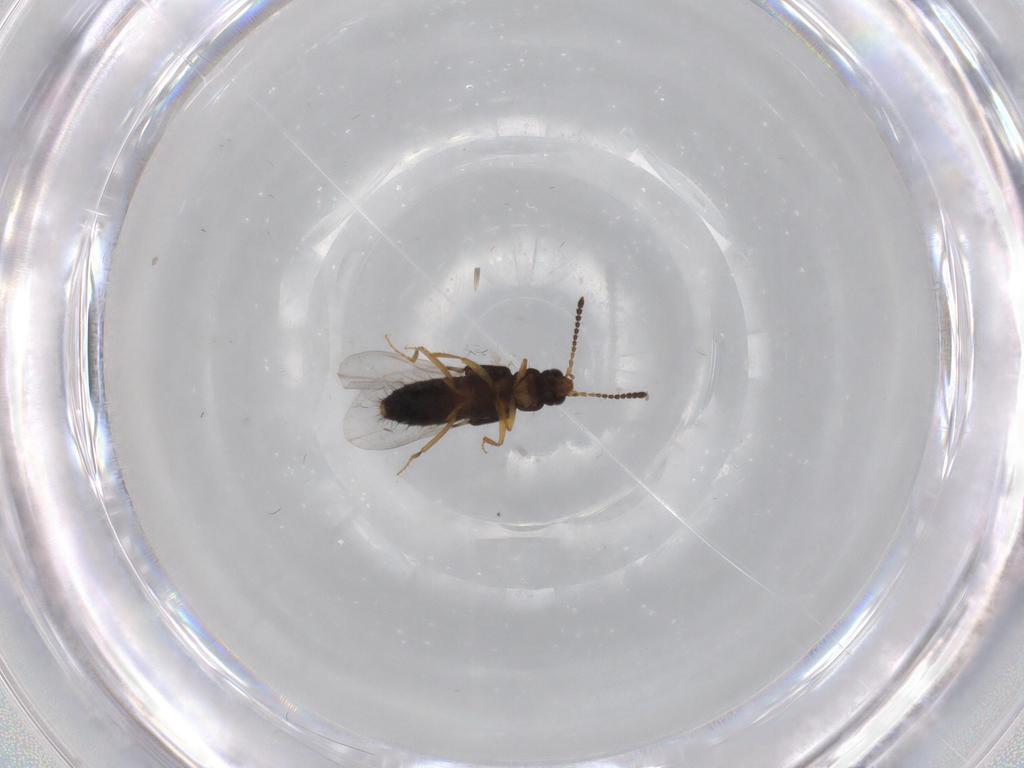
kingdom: Animalia
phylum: Arthropoda
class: Insecta
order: Coleoptera
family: Staphylinidae
